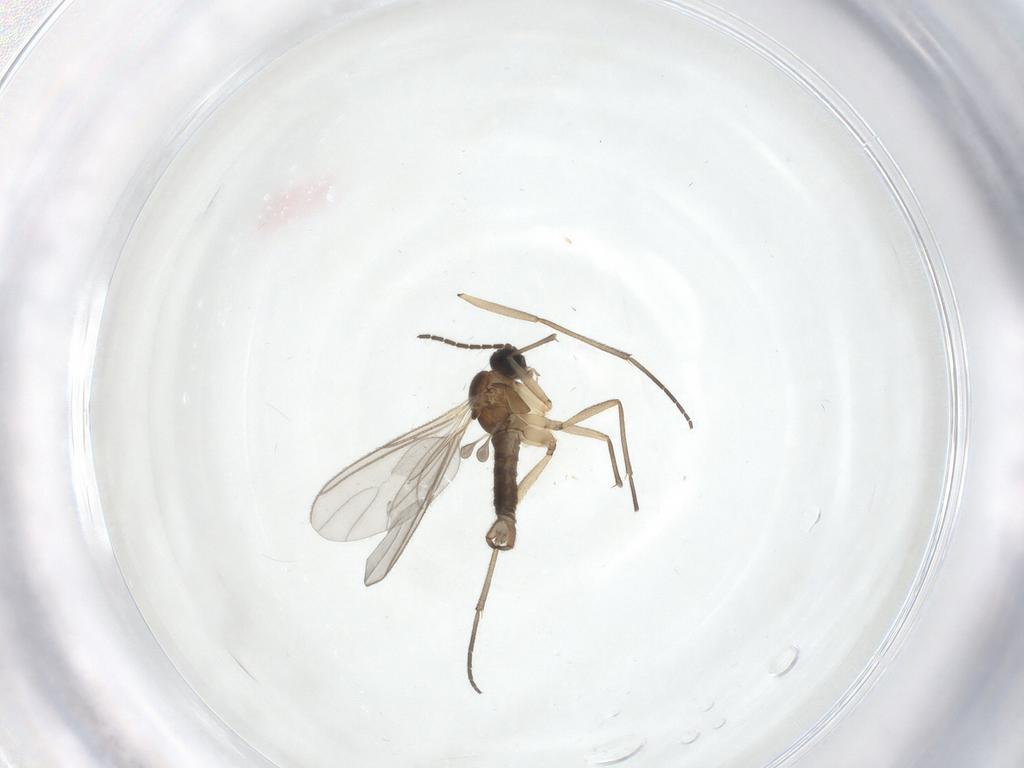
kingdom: Animalia
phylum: Arthropoda
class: Insecta
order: Diptera
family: Sciaridae
